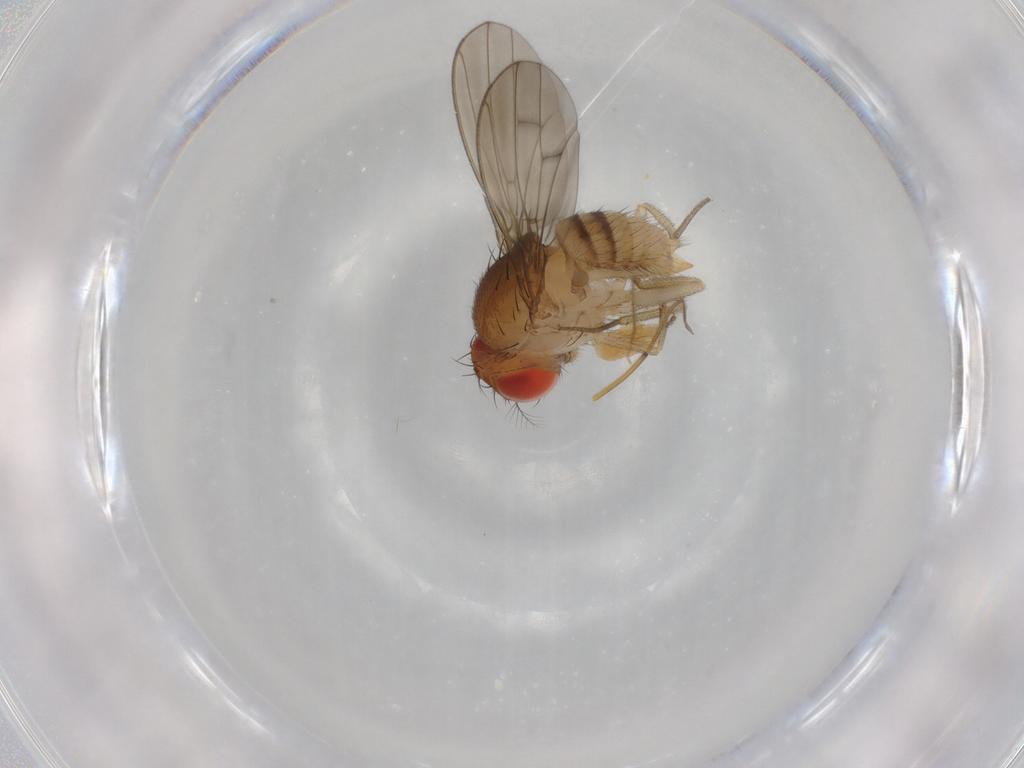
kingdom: Animalia
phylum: Arthropoda
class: Insecta
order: Diptera
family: Drosophilidae
